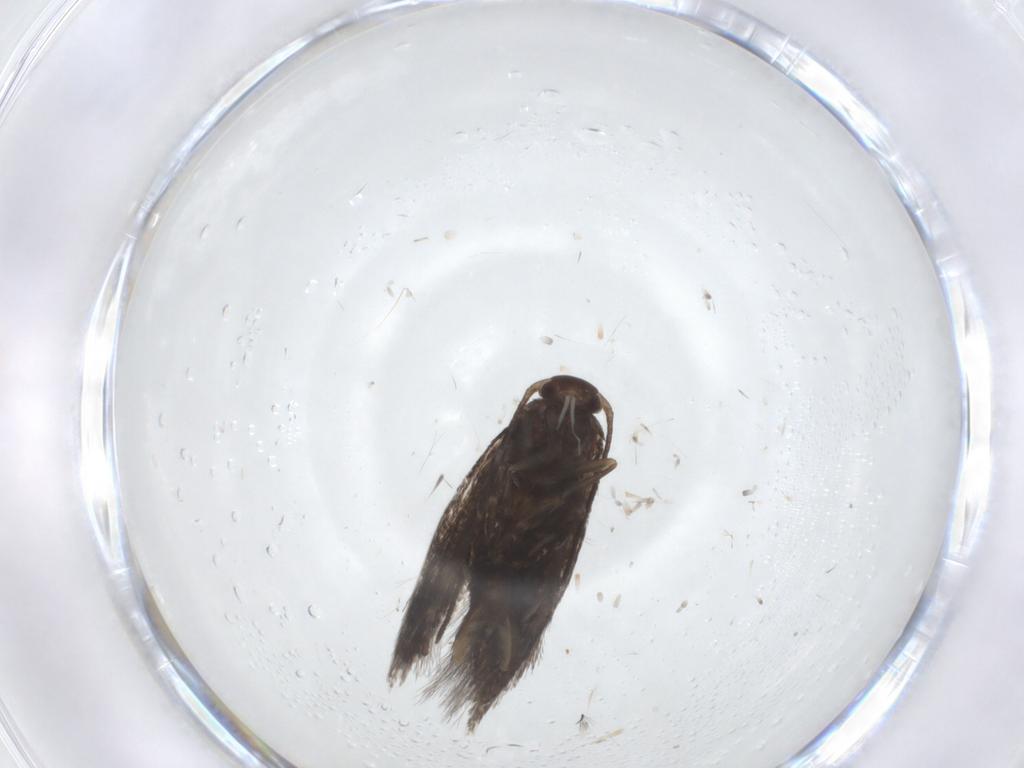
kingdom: Animalia
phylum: Arthropoda
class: Insecta
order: Lepidoptera
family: Elachistidae
